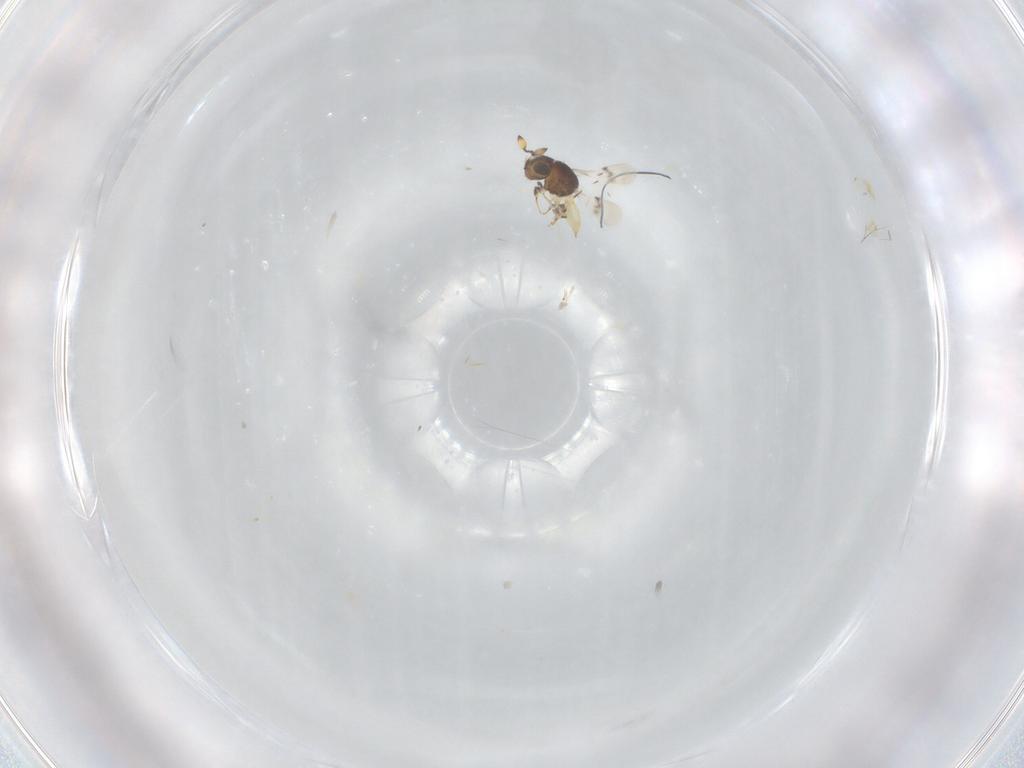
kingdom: Animalia
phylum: Arthropoda
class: Insecta
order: Hymenoptera
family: Scelionidae
